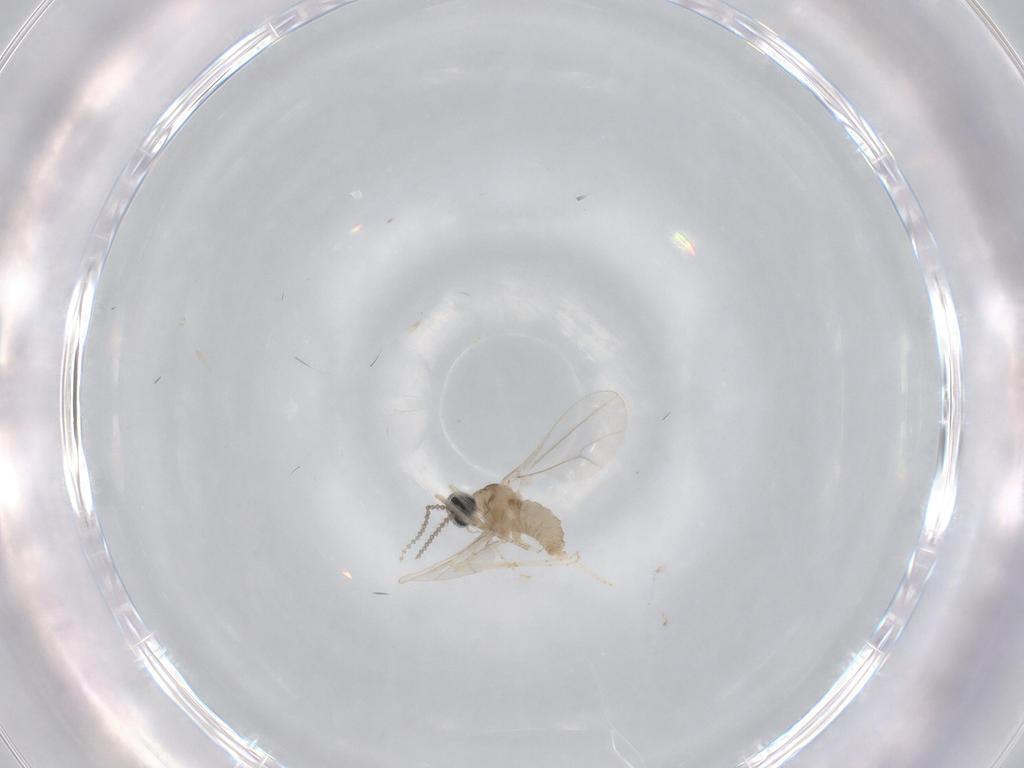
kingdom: Animalia
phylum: Arthropoda
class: Insecta
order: Diptera
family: Cecidomyiidae
